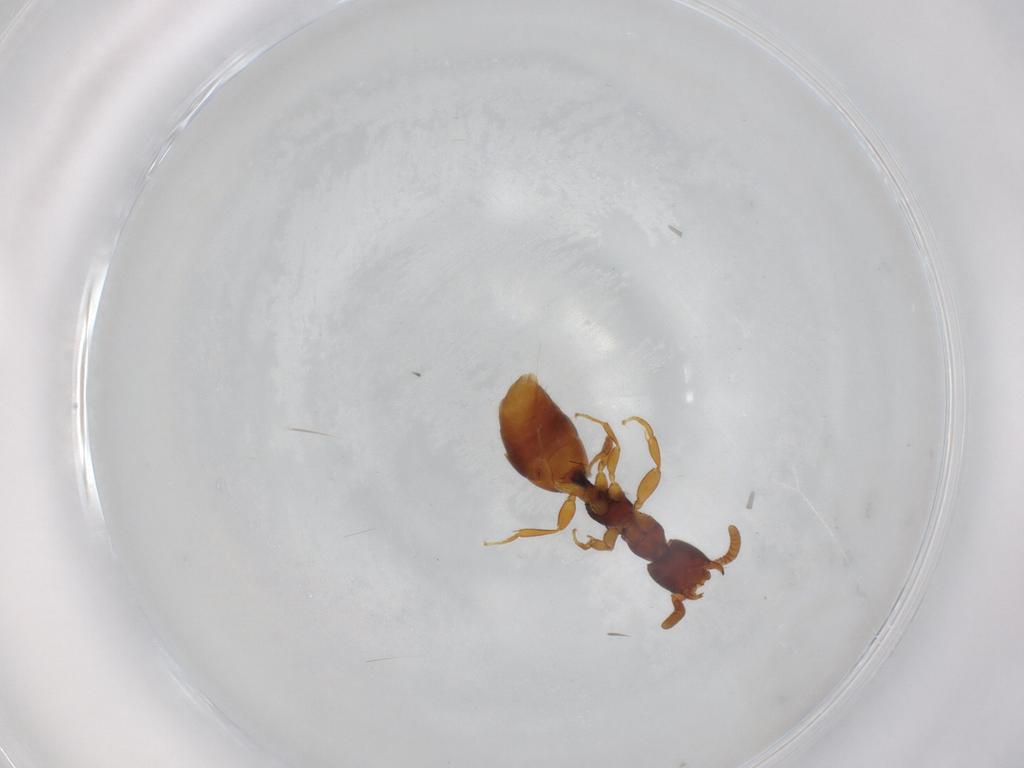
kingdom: Animalia
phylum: Arthropoda
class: Insecta
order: Hymenoptera
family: Bethylidae
